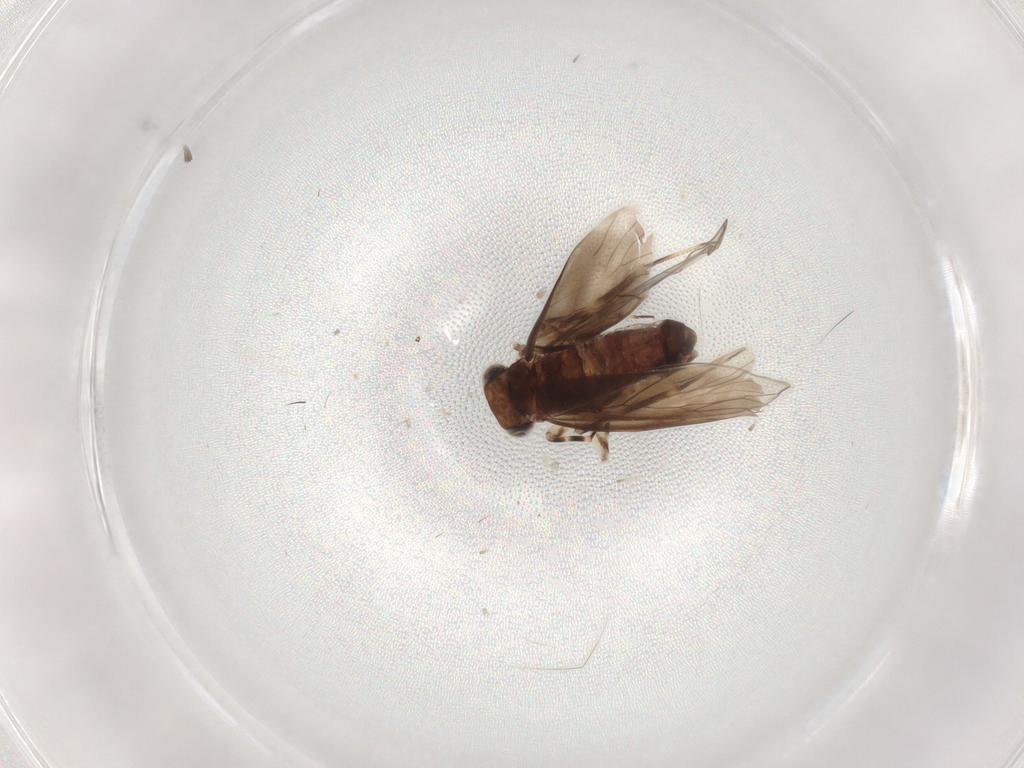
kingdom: Animalia
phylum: Arthropoda
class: Insecta
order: Psocodea
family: Amphientomidae
